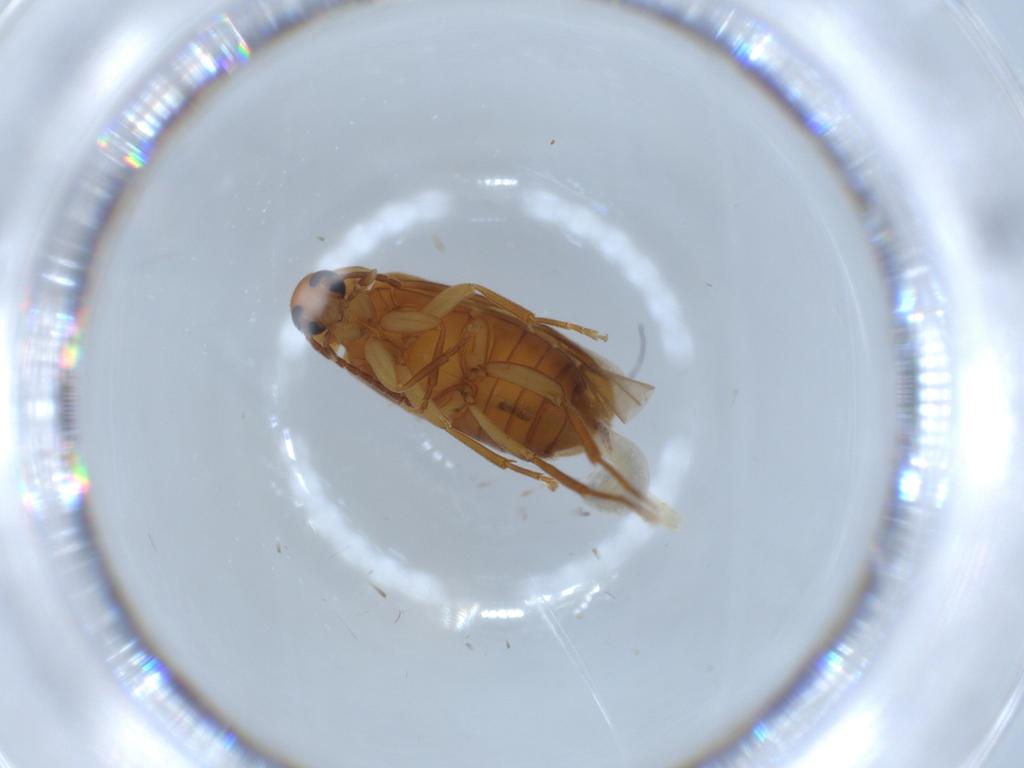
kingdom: Animalia
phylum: Arthropoda
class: Insecta
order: Coleoptera
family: Scraptiidae
